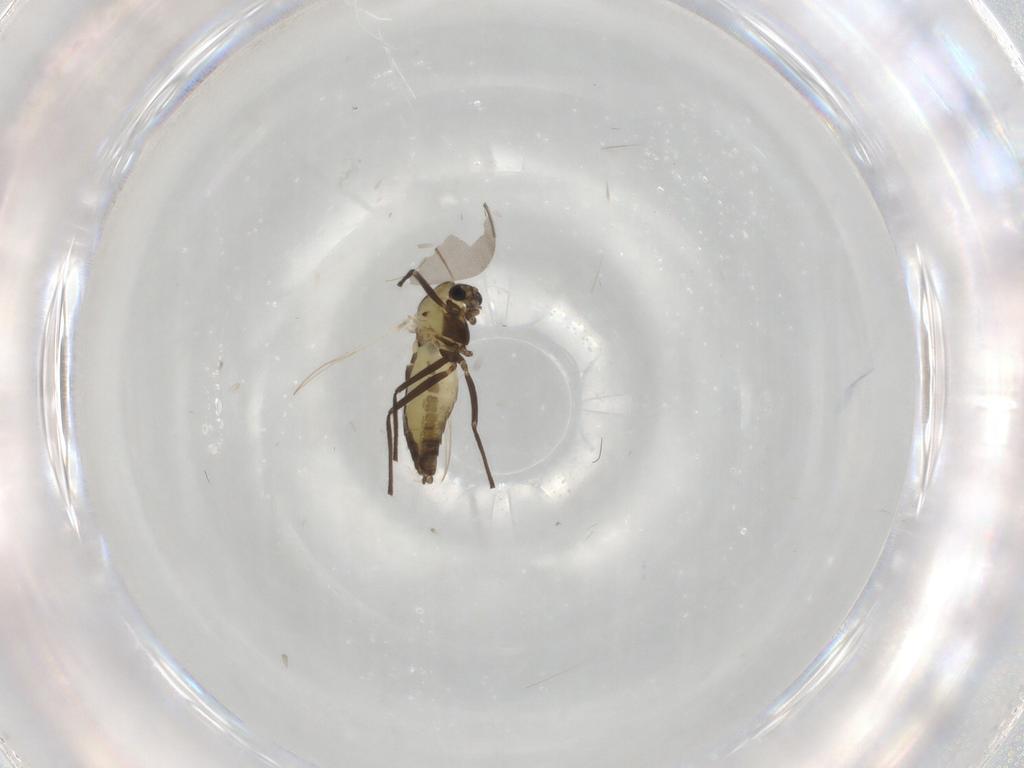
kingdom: Animalia
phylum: Arthropoda
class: Insecta
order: Diptera
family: Chironomidae
